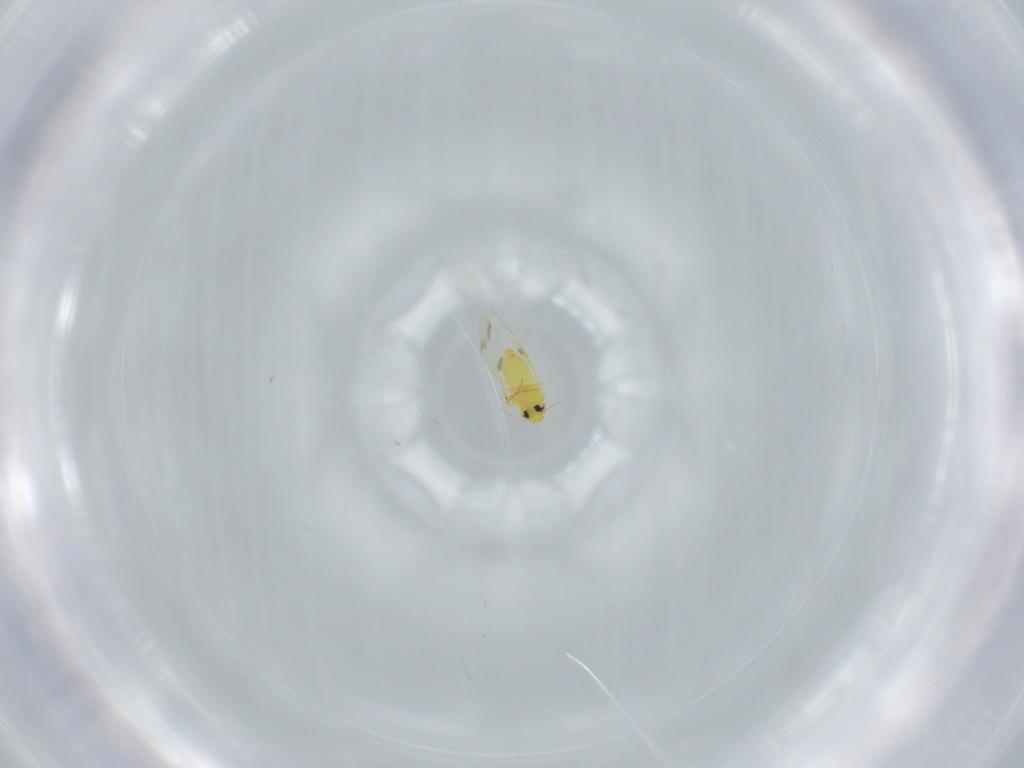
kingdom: Animalia
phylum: Arthropoda
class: Insecta
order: Hemiptera
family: Aleyrodidae
